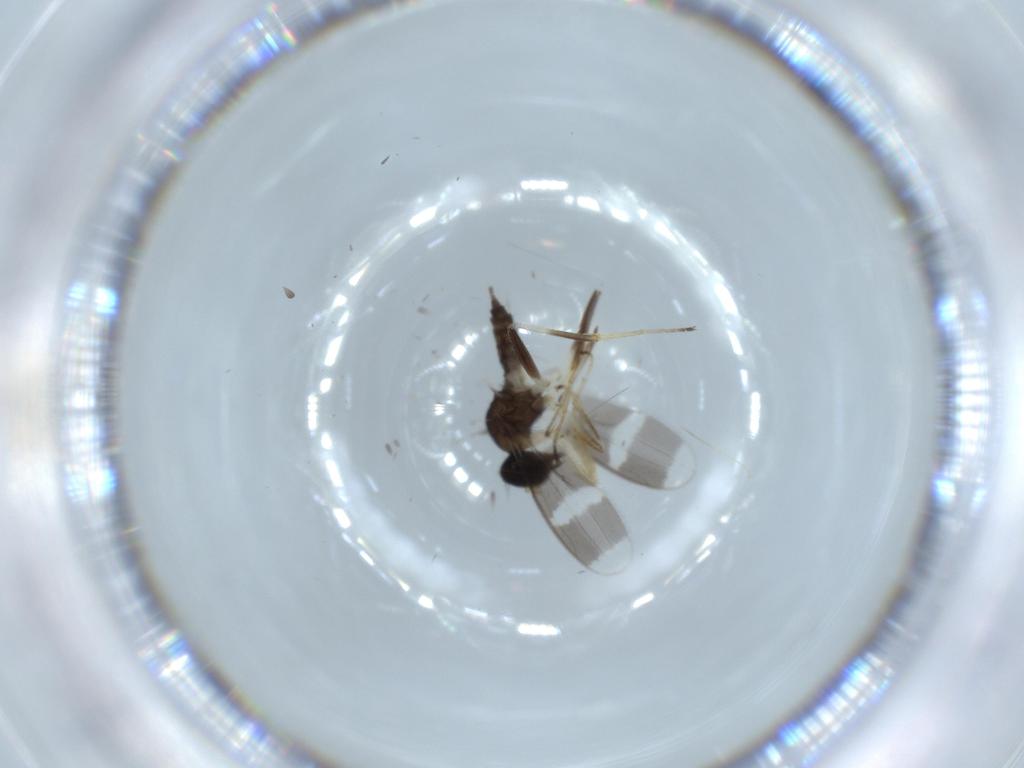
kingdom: Animalia
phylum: Arthropoda
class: Insecta
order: Diptera
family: Hybotidae
